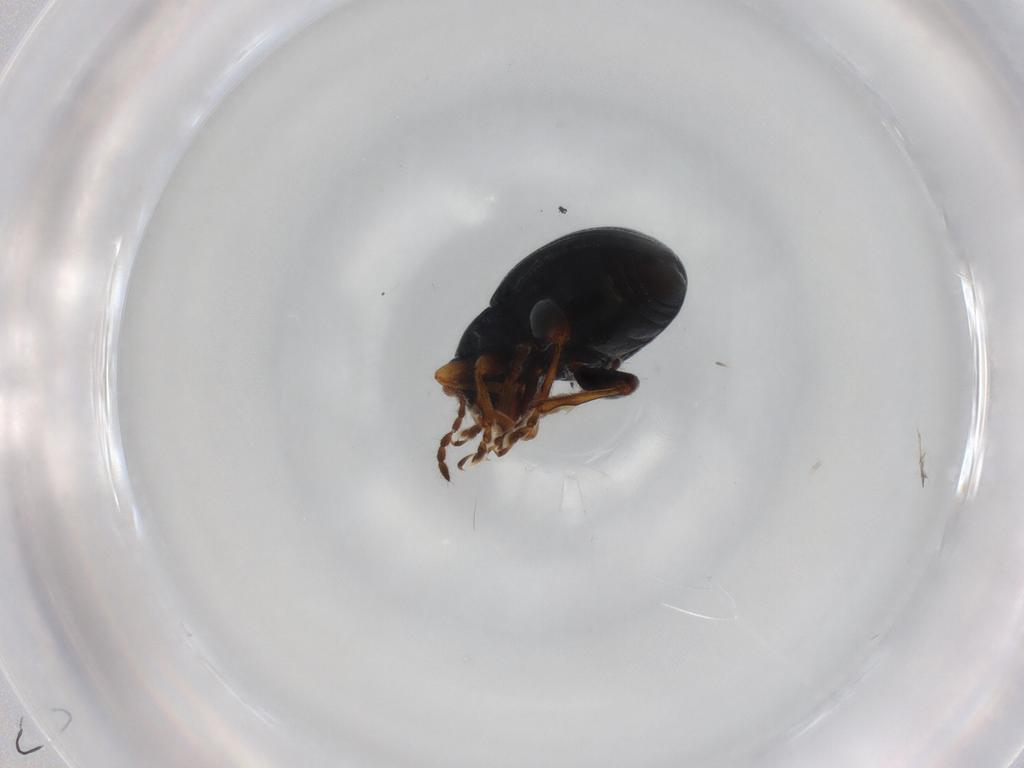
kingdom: Animalia
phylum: Arthropoda
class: Insecta
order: Coleoptera
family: Chrysomelidae
